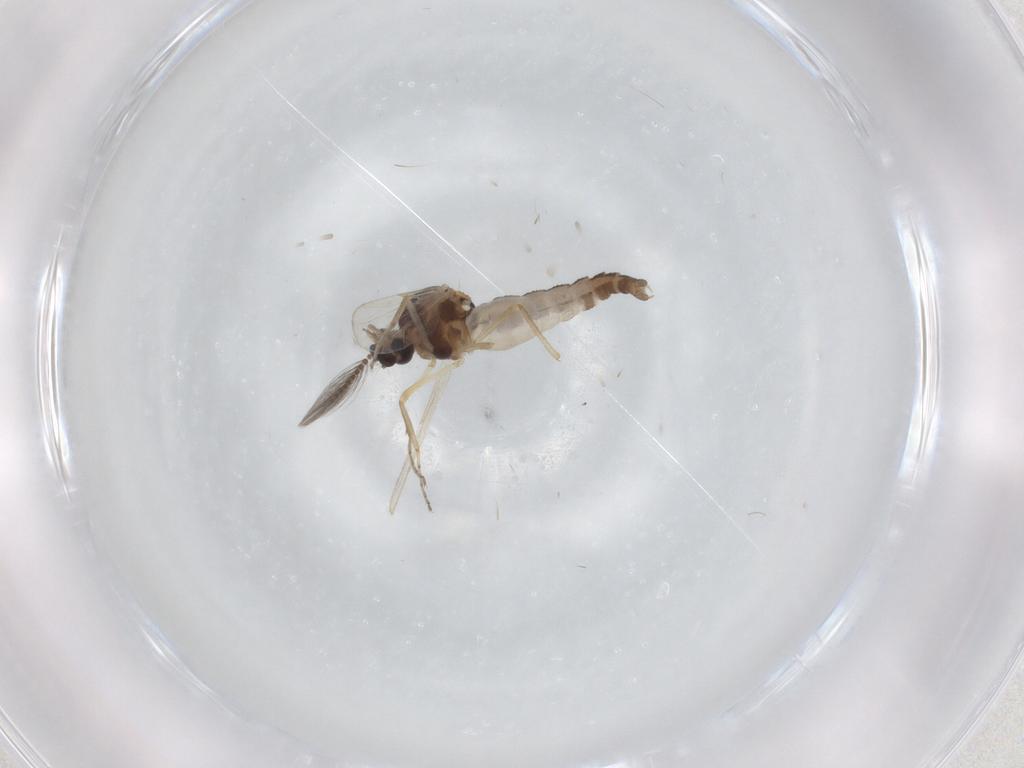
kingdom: Animalia
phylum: Arthropoda
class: Insecta
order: Diptera
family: Ceratopogonidae
